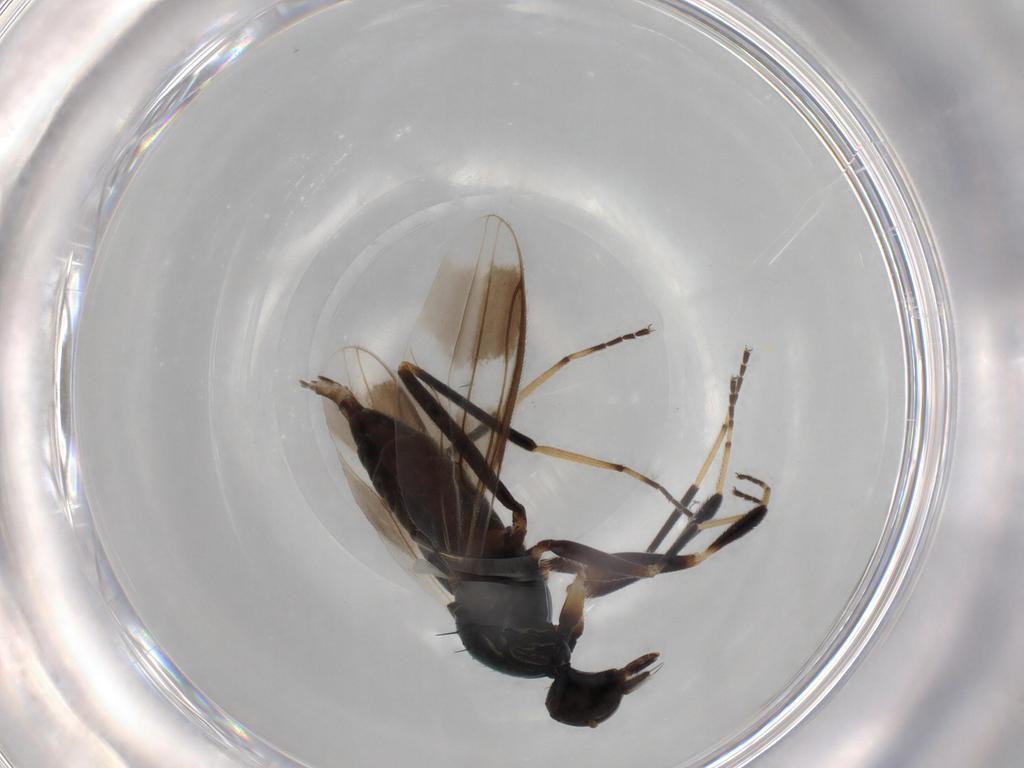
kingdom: Animalia
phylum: Arthropoda
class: Insecta
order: Diptera
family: Hybotidae
